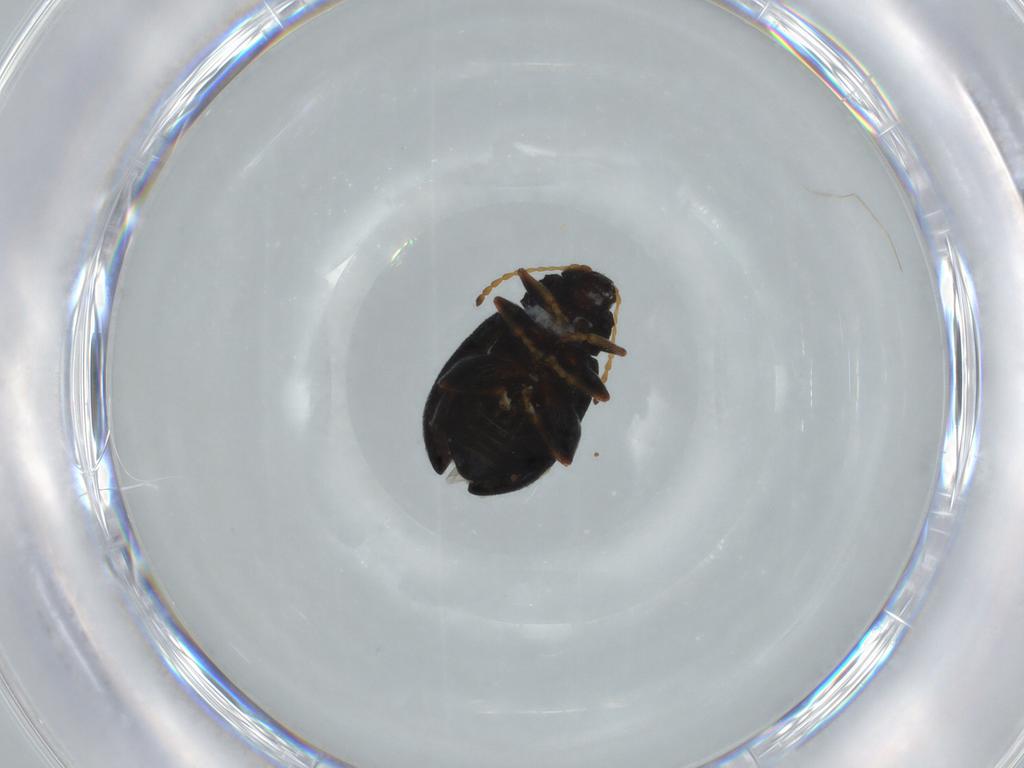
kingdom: Animalia
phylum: Arthropoda
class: Insecta
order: Coleoptera
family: Chrysomelidae
